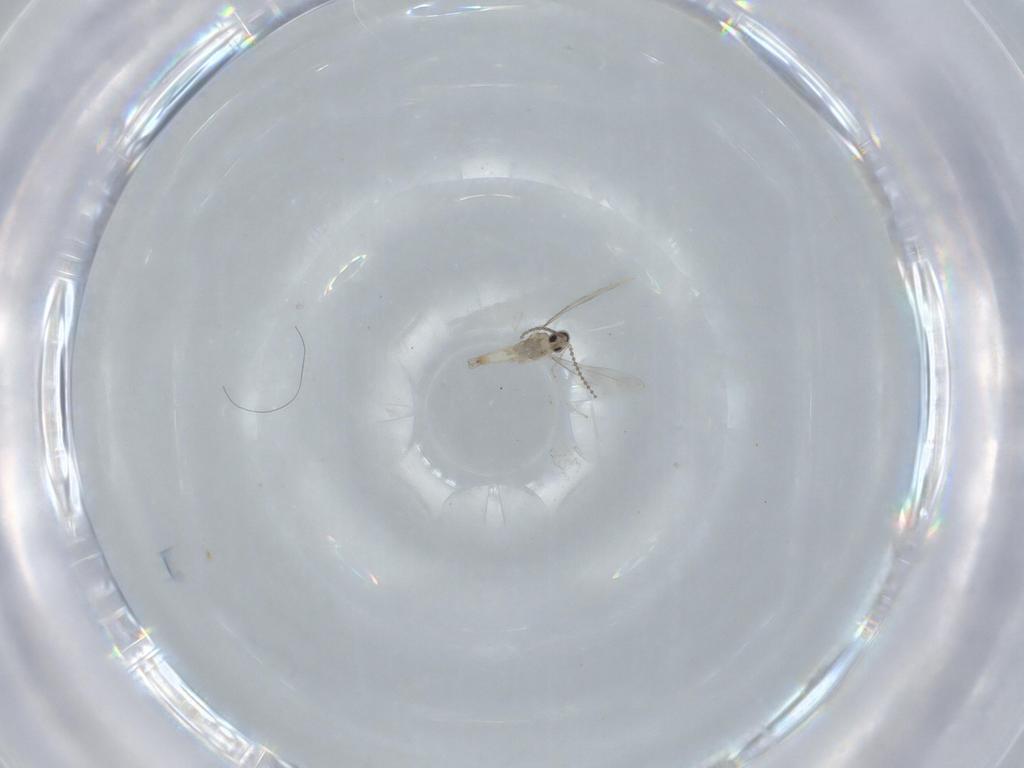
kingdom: Animalia
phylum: Arthropoda
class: Insecta
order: Diptera
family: Cecidomyiidae
